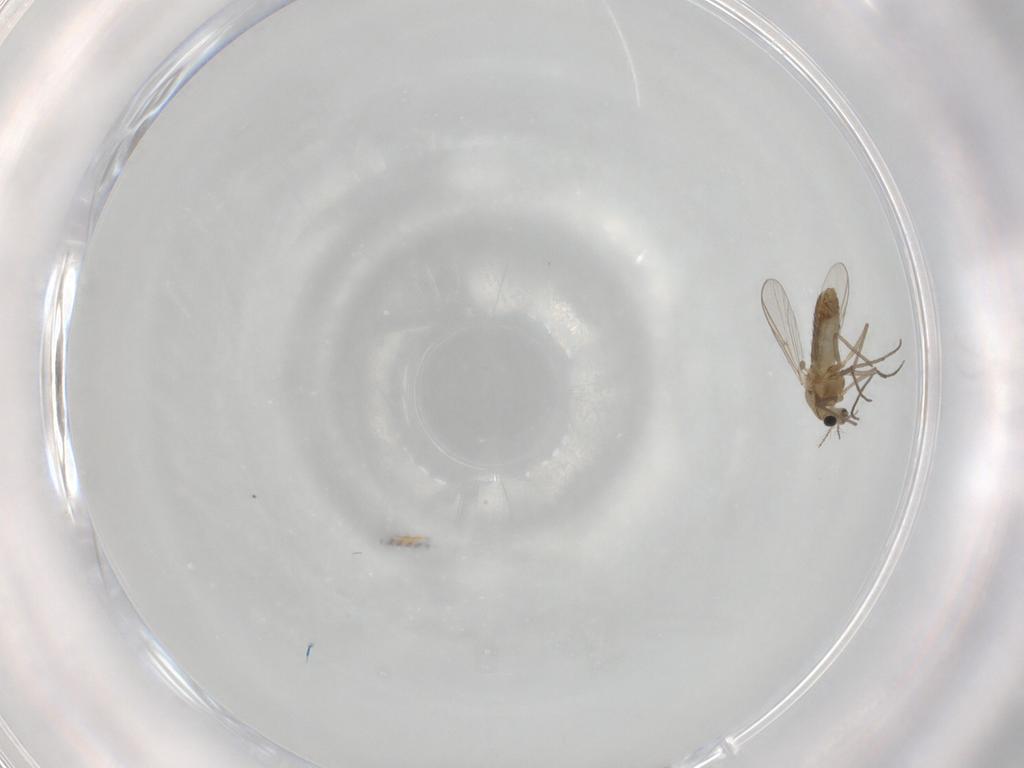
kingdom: Animalia
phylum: Arthropoda
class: Insecta
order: Diptera
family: Chironomidae
